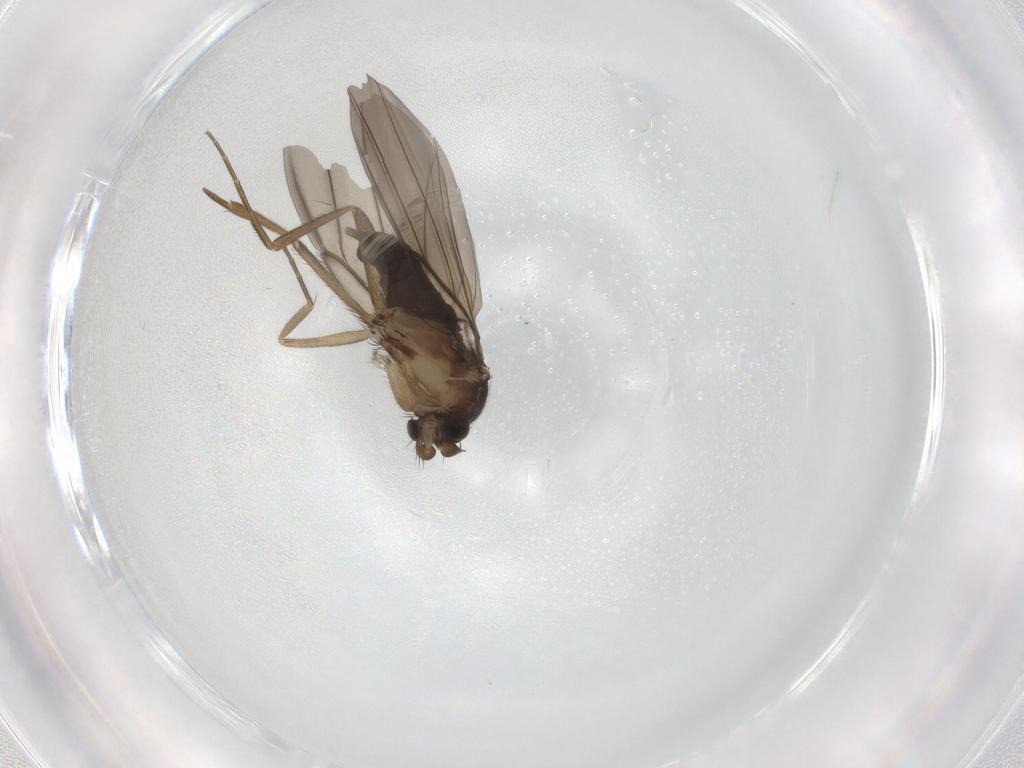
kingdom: Animalia
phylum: Arthropoda
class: Insecta
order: Diptera
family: Phoridae
